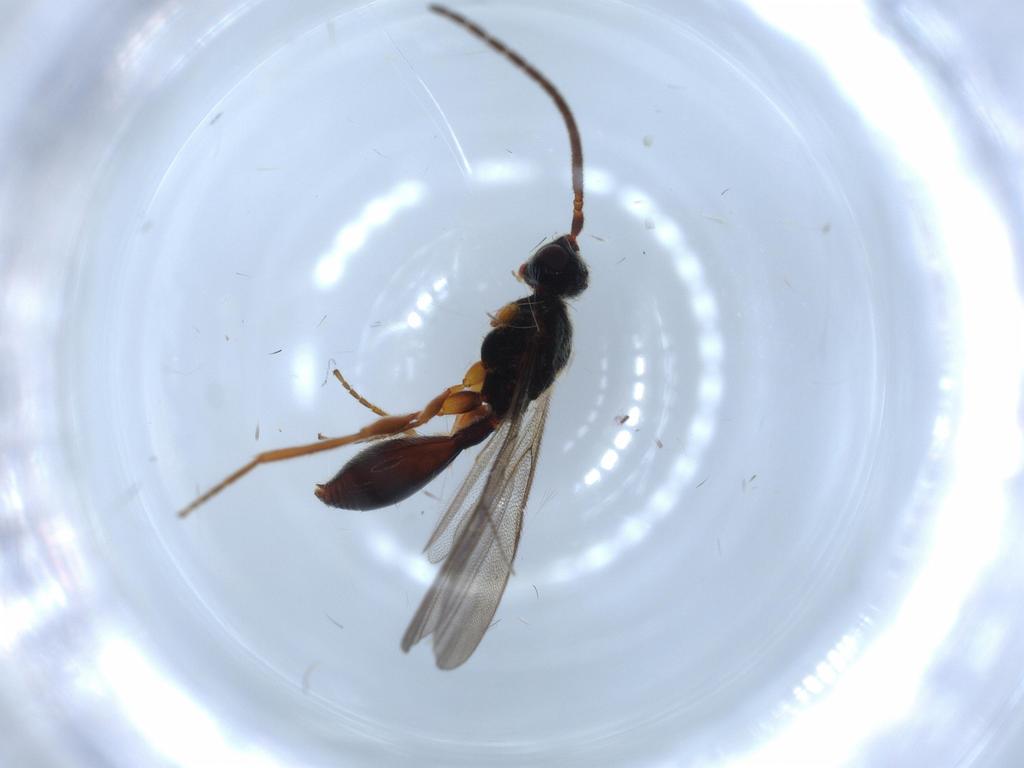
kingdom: Animalia
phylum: Arthropoda
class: Insecta
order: Hymenoptera
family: Diapriidae
